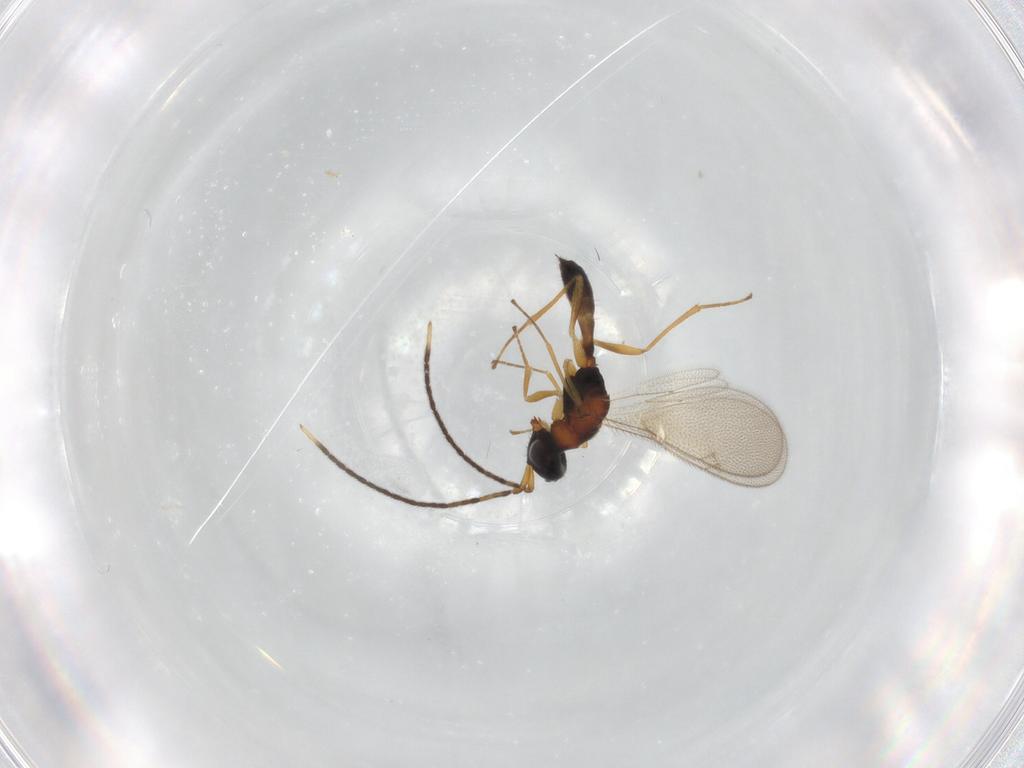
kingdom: Animalia
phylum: Arthropoda
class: Insecta
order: Hymenoptera
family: Pteromalidae
